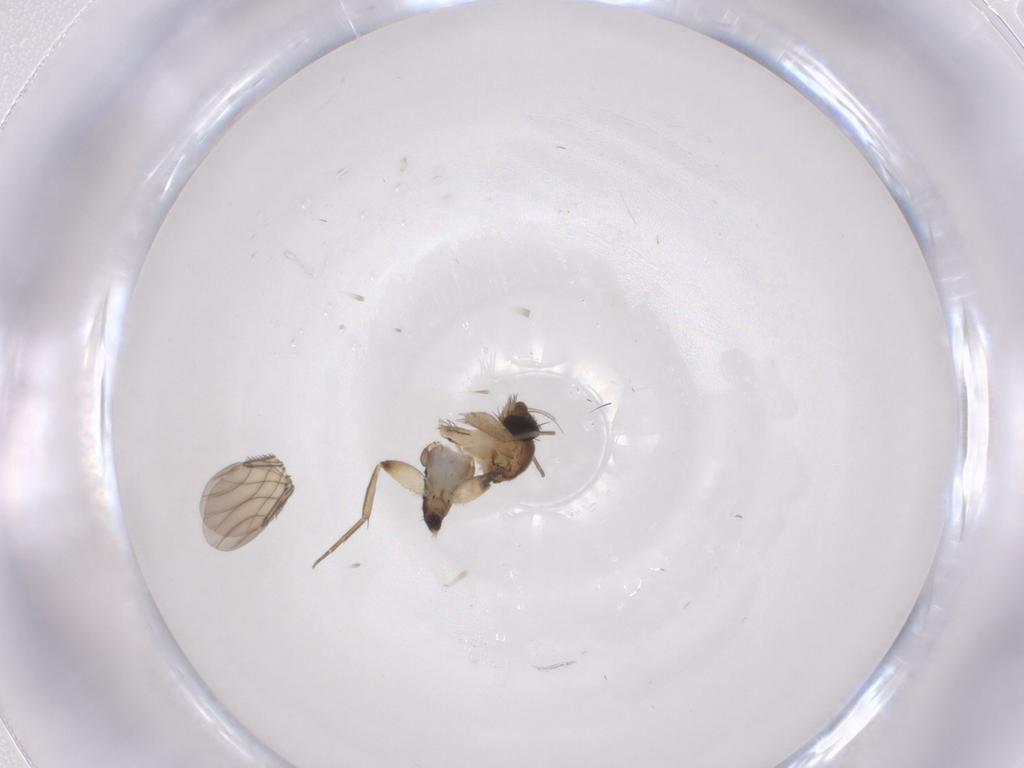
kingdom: Animalia
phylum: Arthropoda
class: Insecta
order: Diptera
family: Phoridae
